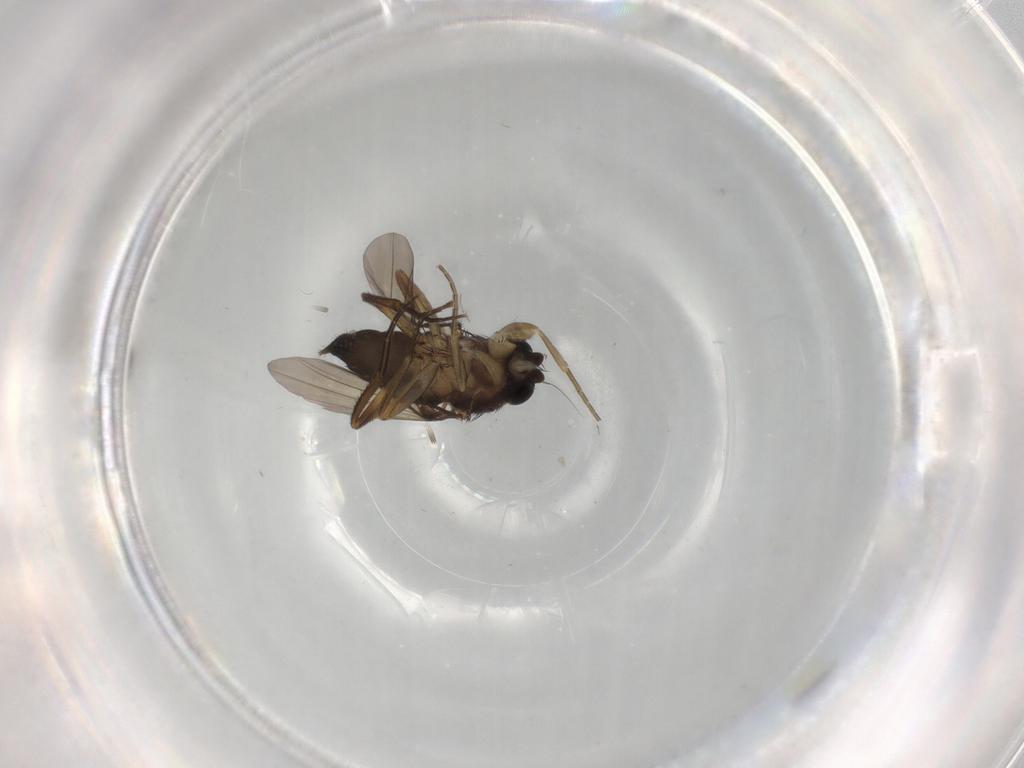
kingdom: Animalia
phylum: Arthropoda
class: Insecta
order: Diptera
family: Phoridae
